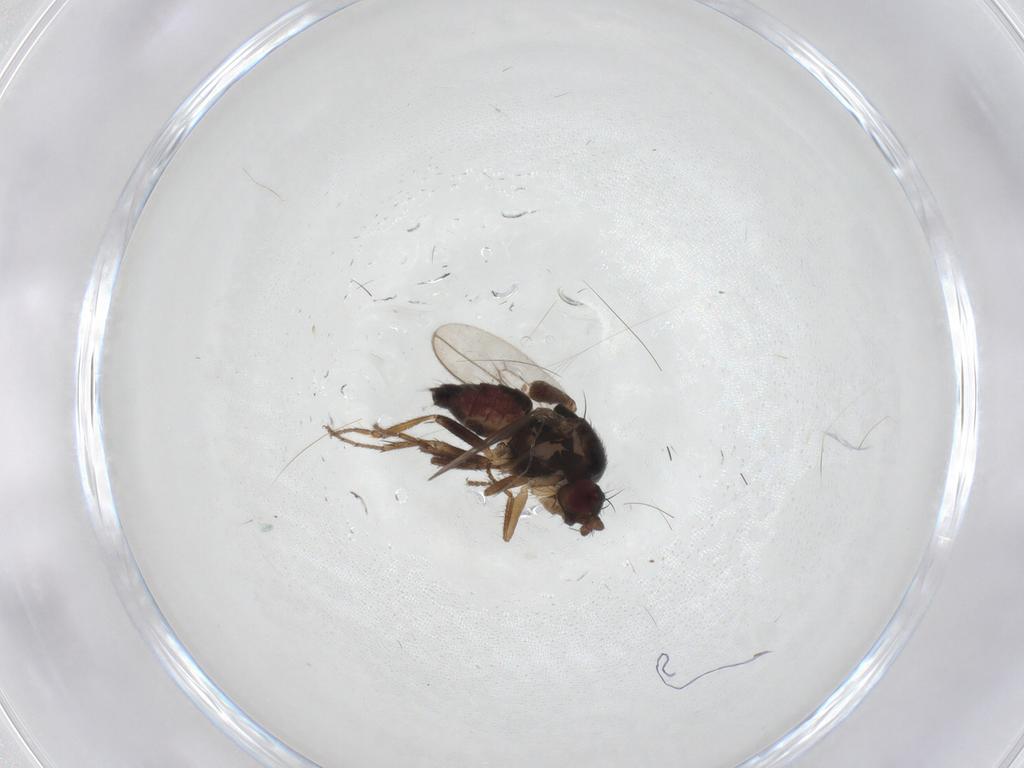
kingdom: Animalia
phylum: Arthropoda
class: Insecta
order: Diptera
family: Sphaeroceridae
